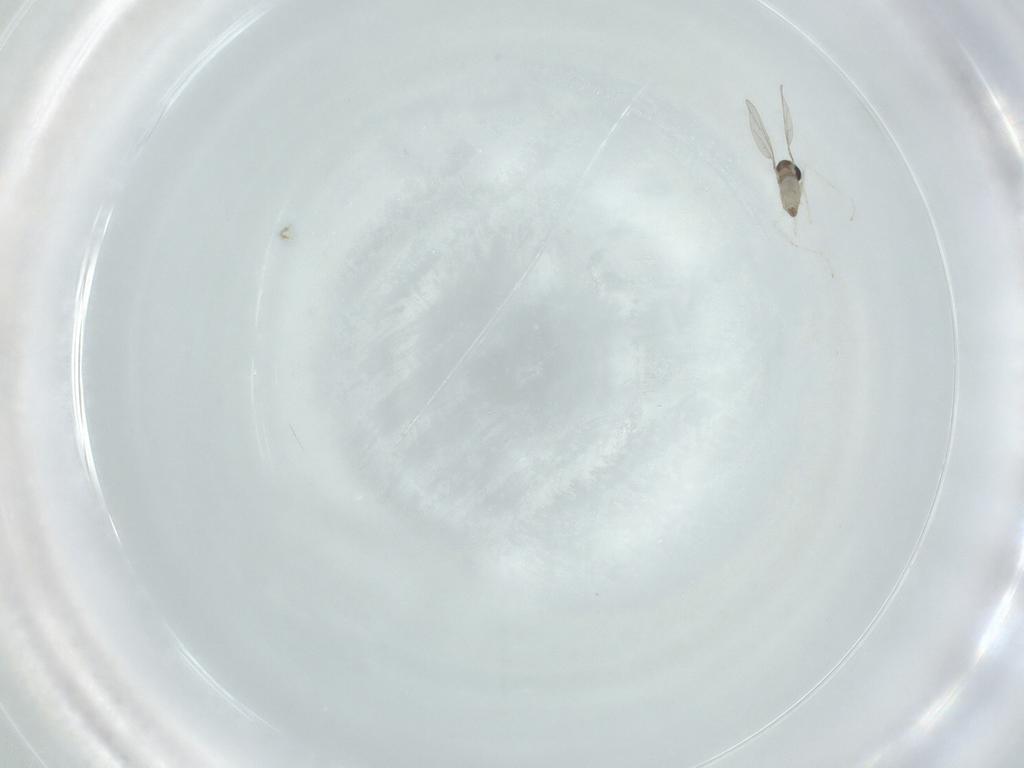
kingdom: Animalia
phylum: Arthropoda
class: Insecta
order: Diptera
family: Cecidomyiidae
